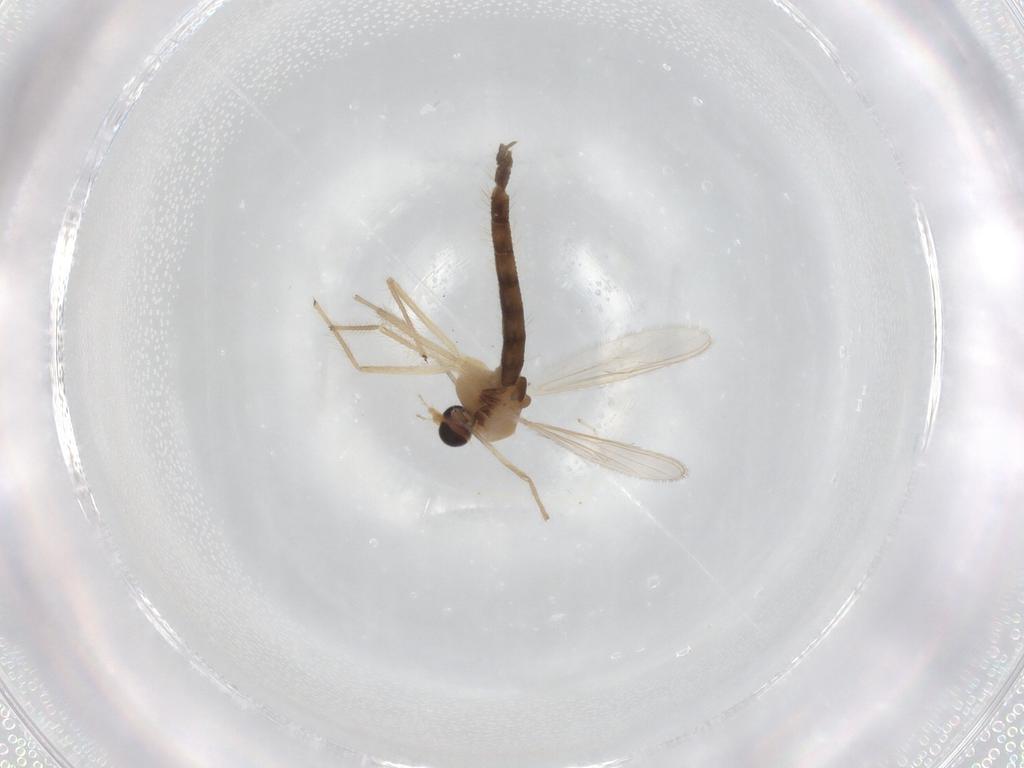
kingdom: Animalia
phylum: Arthropoda
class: Insecta
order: Diptera
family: Chironomidae
